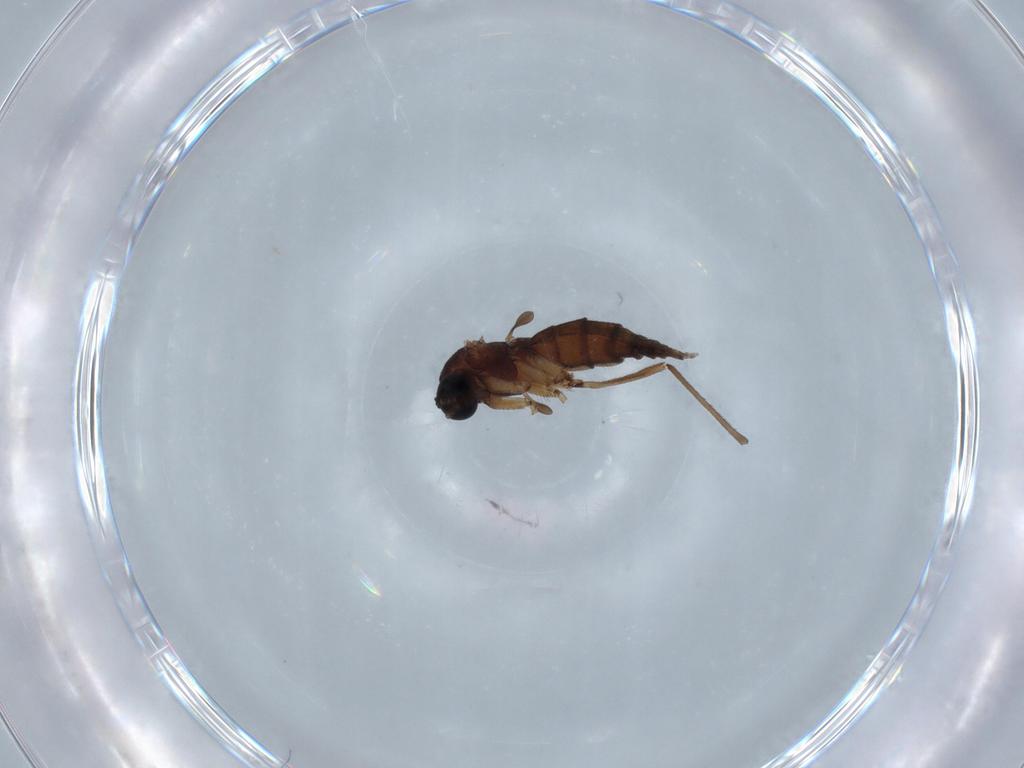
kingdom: Animalia
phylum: Arthropoda
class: Insecta
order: Diptera
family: Sciaridae
